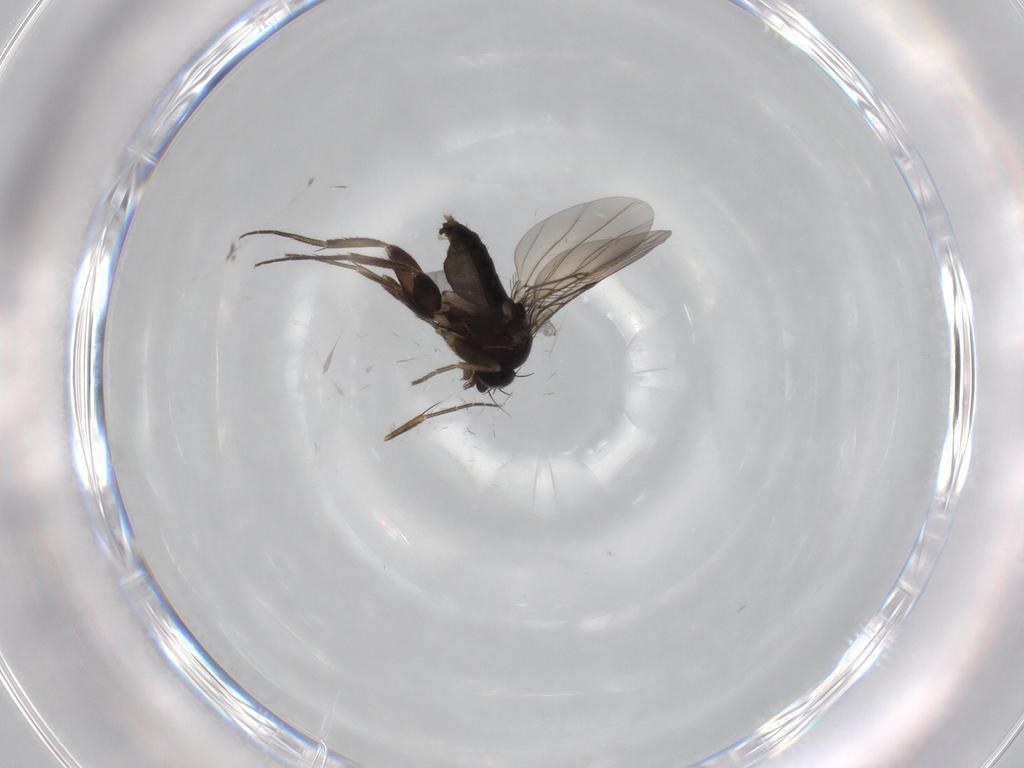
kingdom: Animalia
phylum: Arthropoda
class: Insecta
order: Diptera
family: Phoridae
